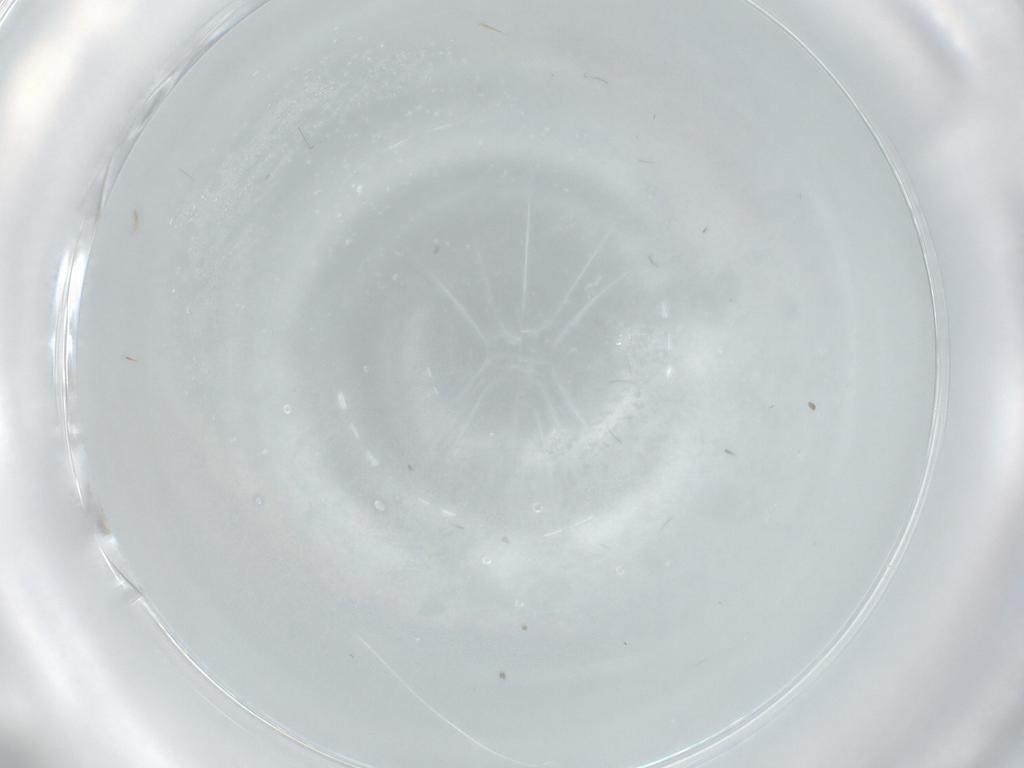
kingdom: Animalia
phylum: Arthropoda
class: Insecta
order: Hemiptera
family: Aleyrodidae
